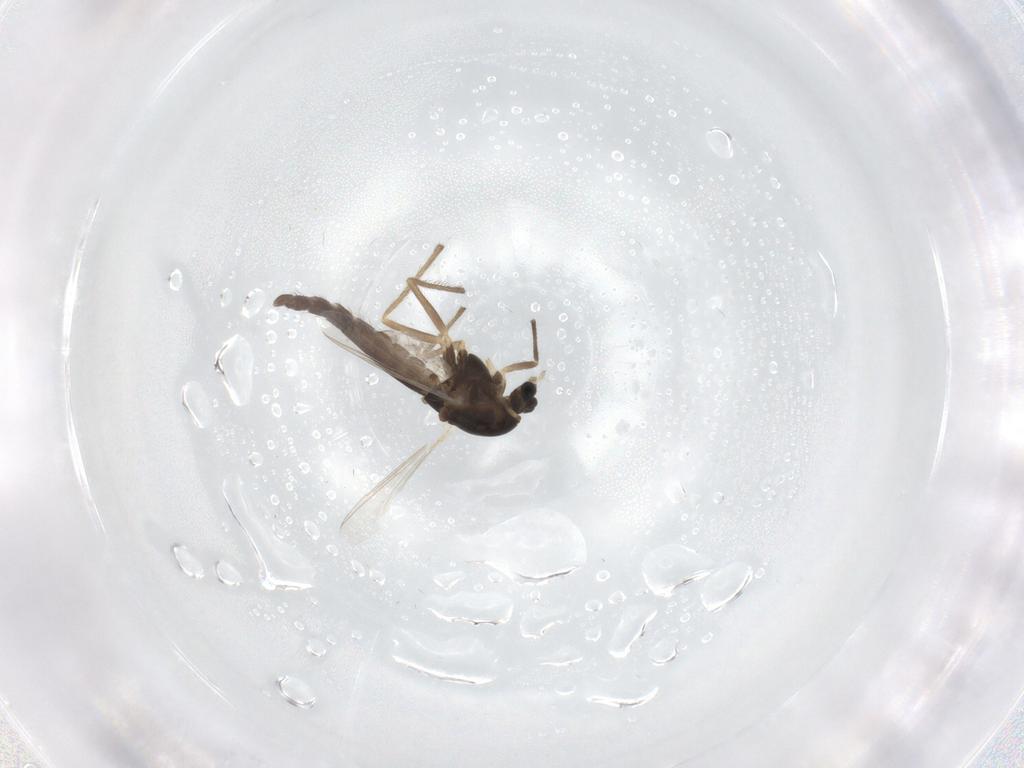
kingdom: Animalia
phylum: Arthropoda
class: Insecta
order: Diptera
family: Chironomidae
